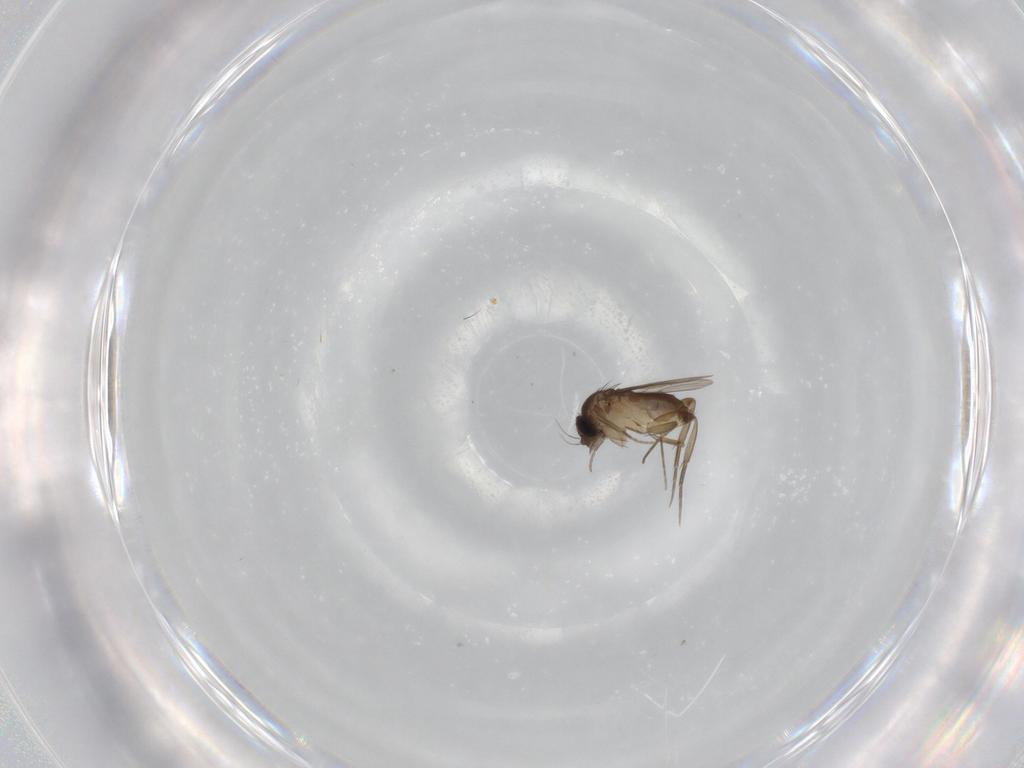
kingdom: Animalia
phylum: Arthropoda
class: Insecta
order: Diptera
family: Phoridae
